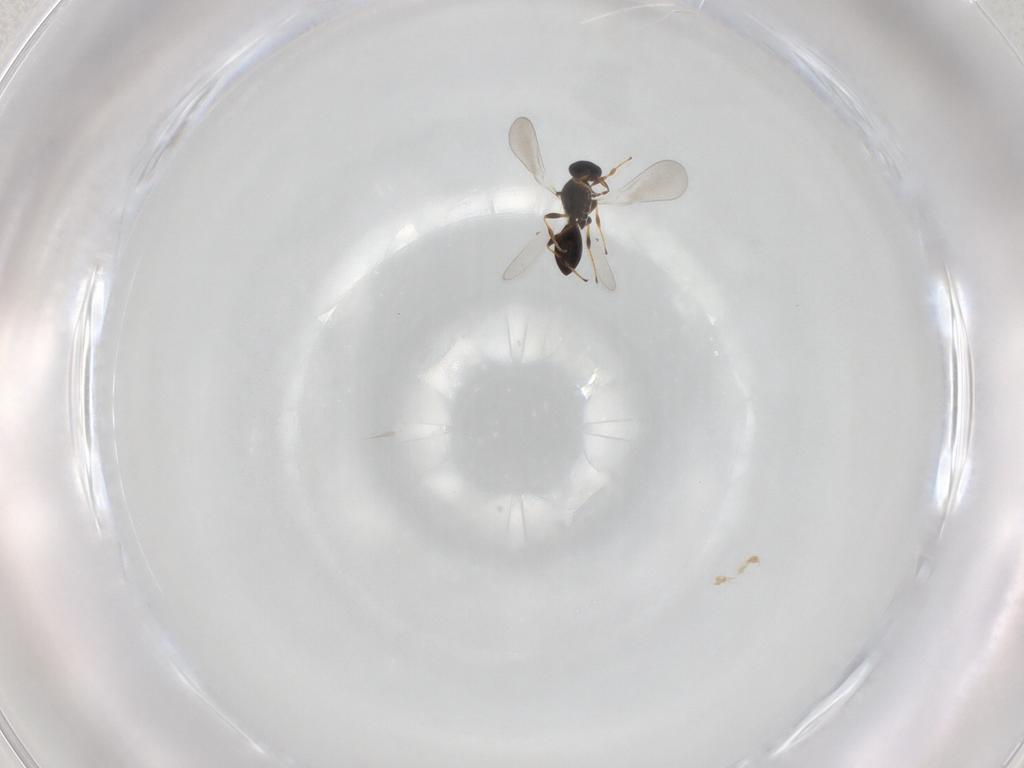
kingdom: Animalia
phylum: Arthropoda
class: Insecta
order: Hymenoptera
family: Platygastridae
